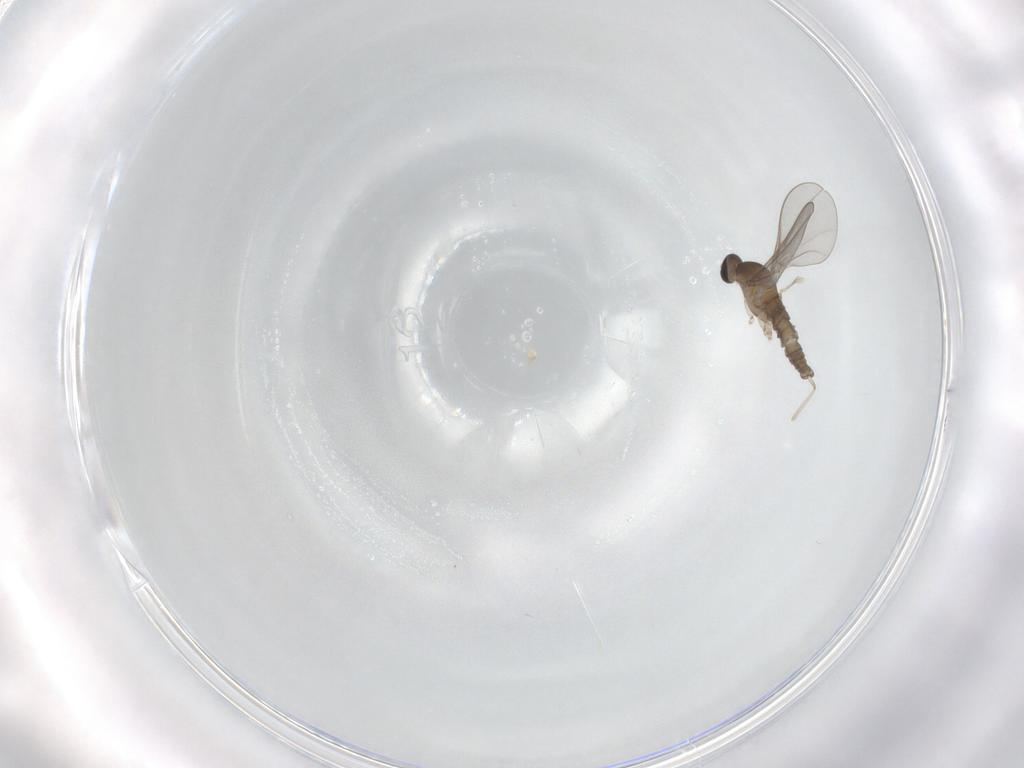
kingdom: Animalia
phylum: Arthropoda
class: Insecta
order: Diptera
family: Cecidomyiidae
